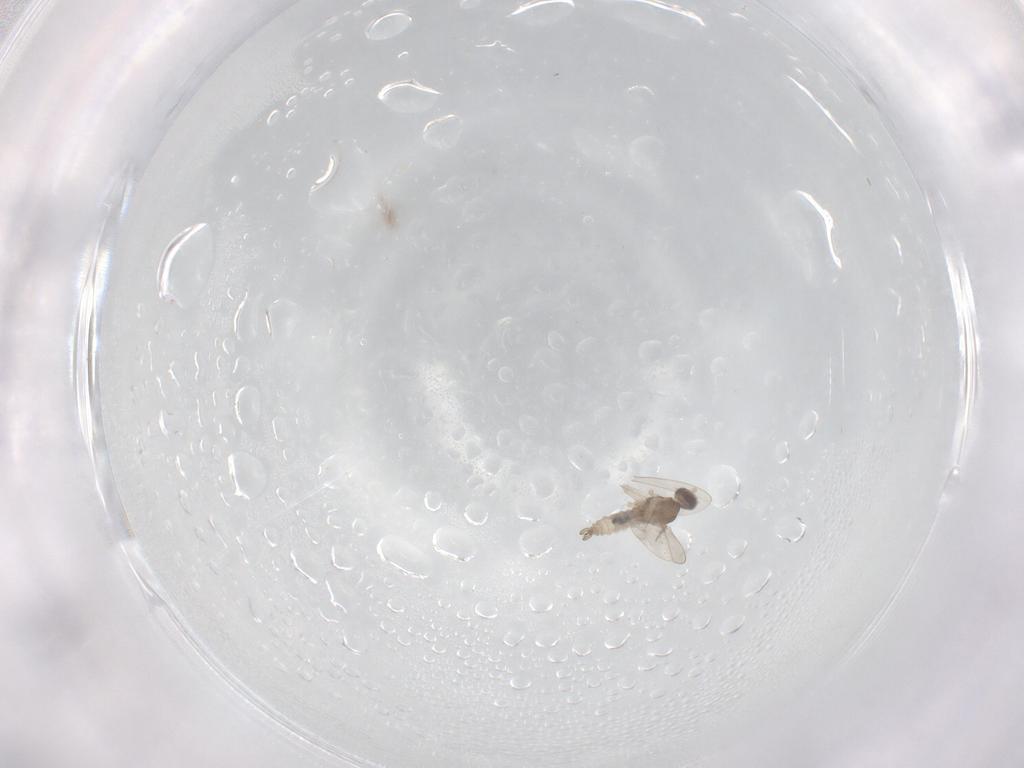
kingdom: Animalia
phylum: Arthropoda
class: Insecta
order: Diptera
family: Cecidomyiidae
